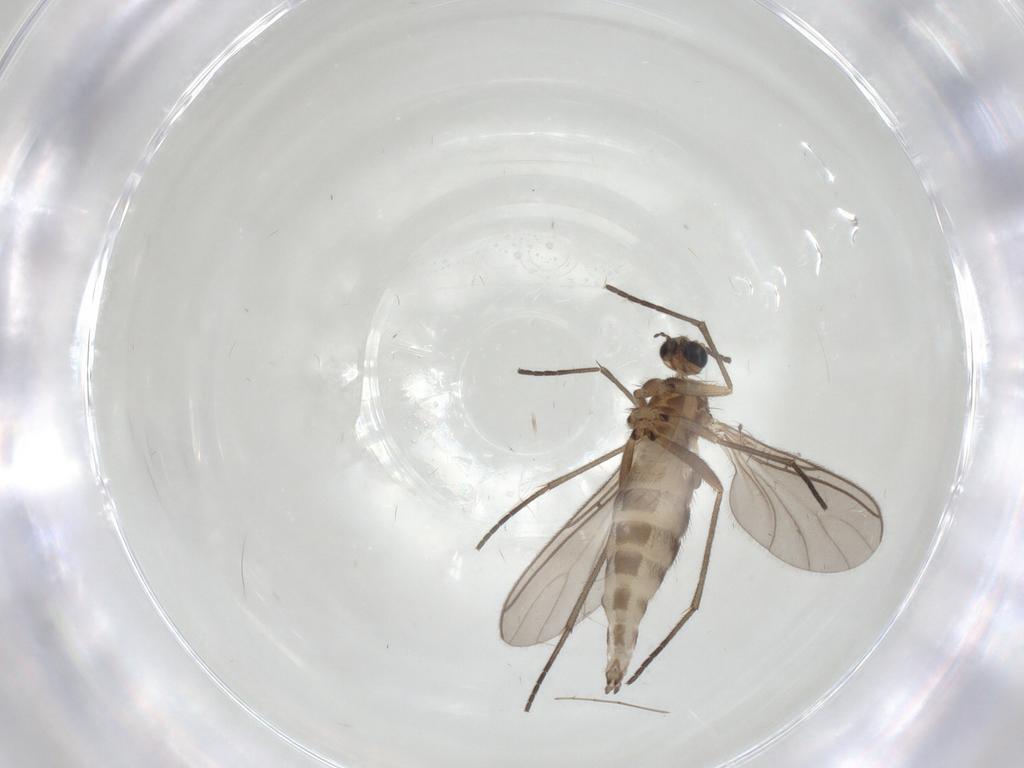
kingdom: Animalia
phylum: Arthropoda
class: Insecta
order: Diptera
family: Sciaridae
